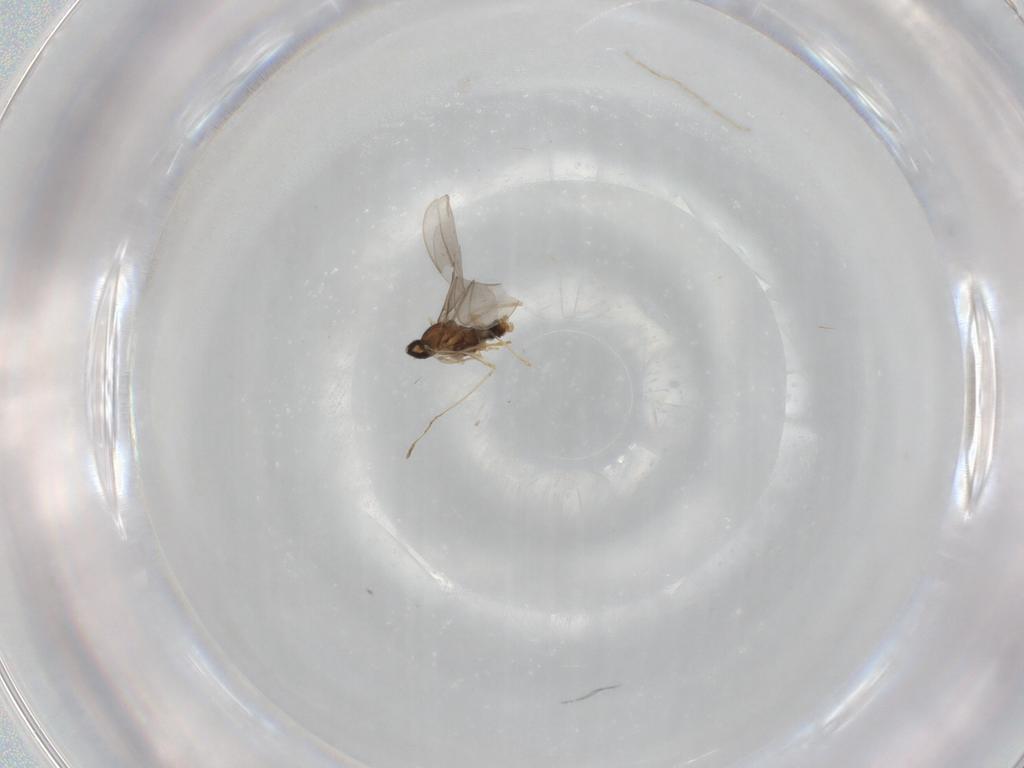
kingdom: Animalia
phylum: Arthropoda
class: Insecta
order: Diptera
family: Cecidomyiidae
